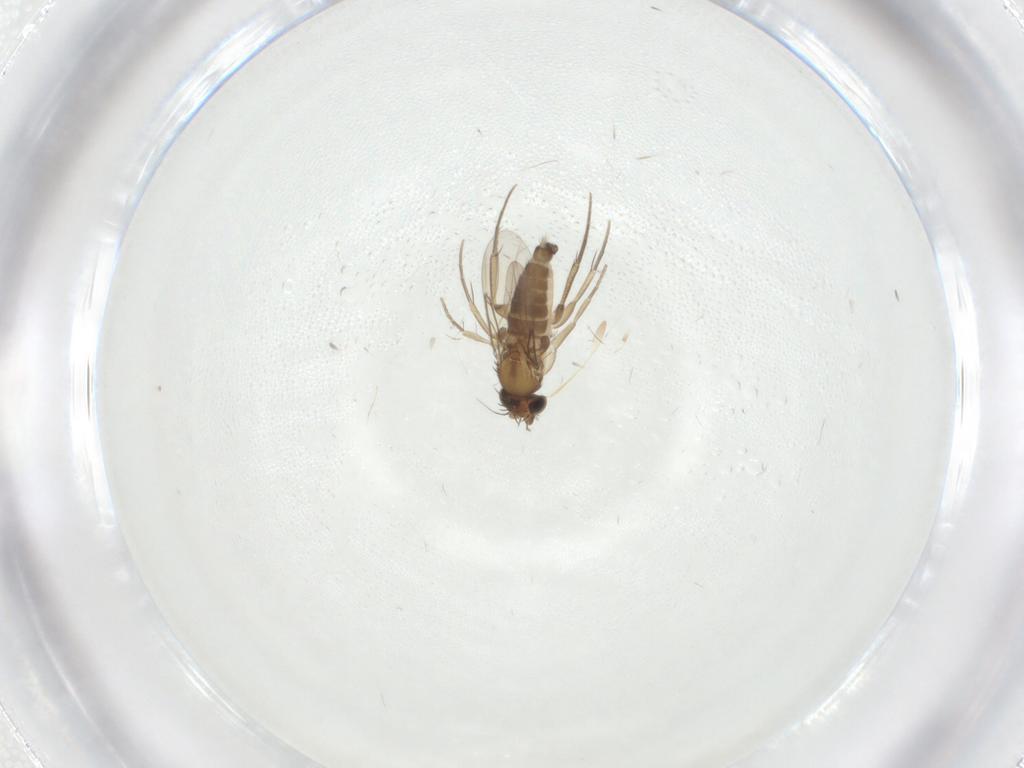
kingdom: Animalia
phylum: Arthropoda
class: Insecta
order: Diptera
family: Phoridae
